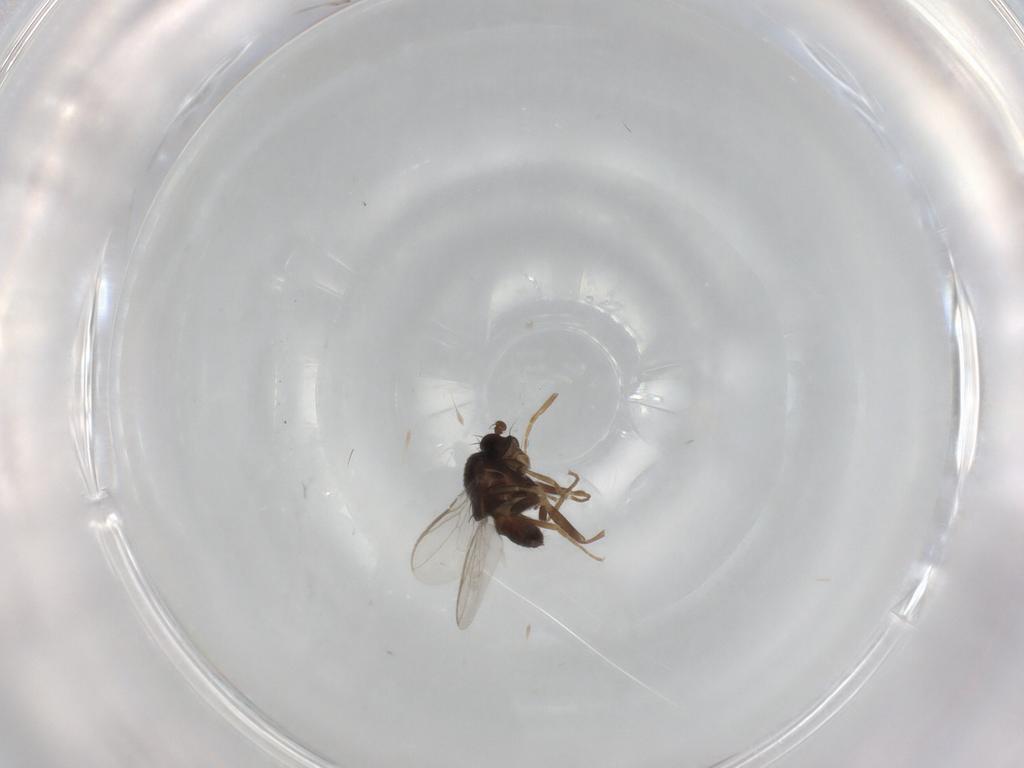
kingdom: Animalia
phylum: Arthropoda
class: Insecta
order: Diptera
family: Sphaeroceridae
